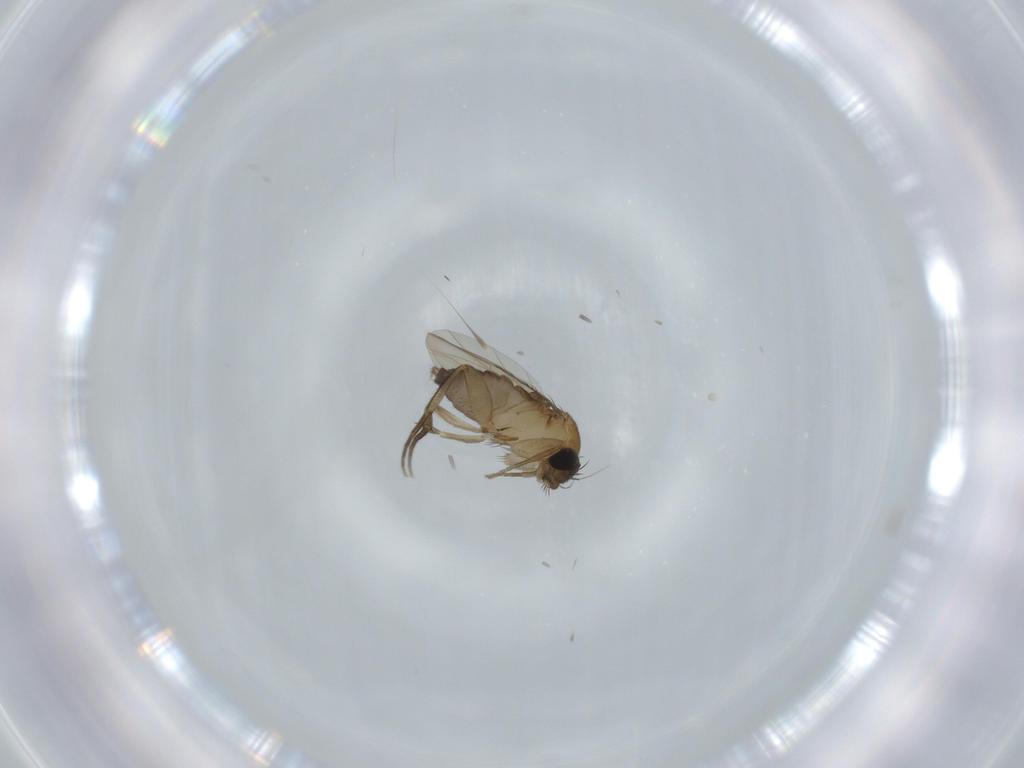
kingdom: Animalia
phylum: Arthropoda
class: Insecta
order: Diptera
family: Phoridae
